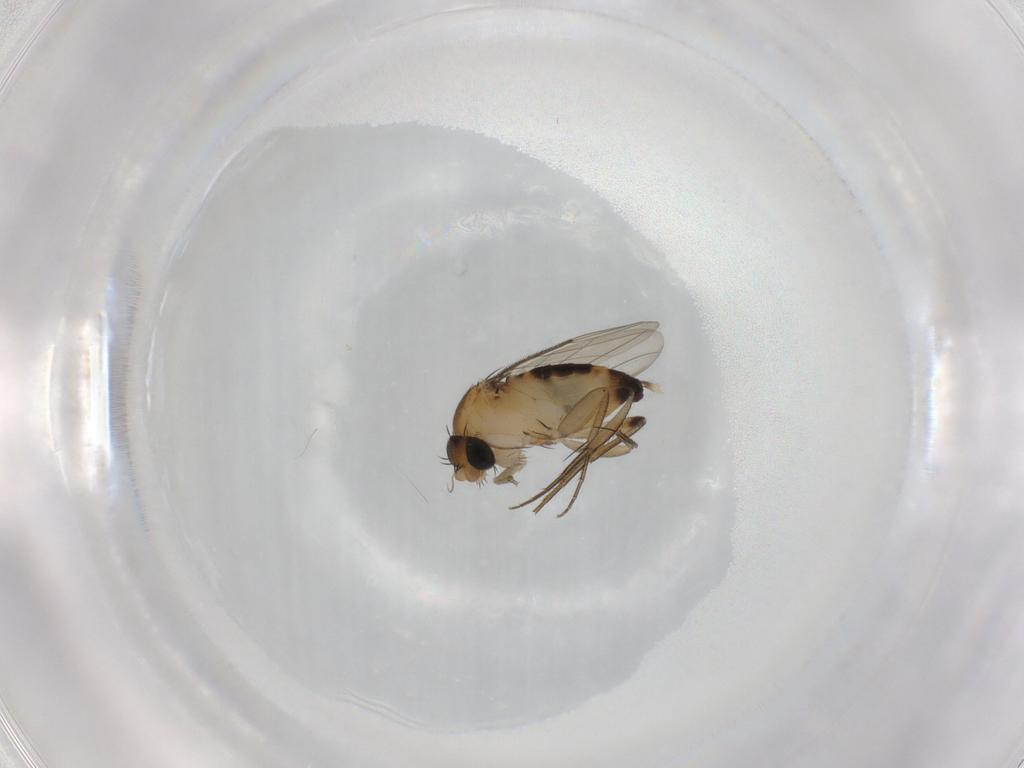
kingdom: Animalia
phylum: Arthropoda
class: Insecta
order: Diptera
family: Phoridae
